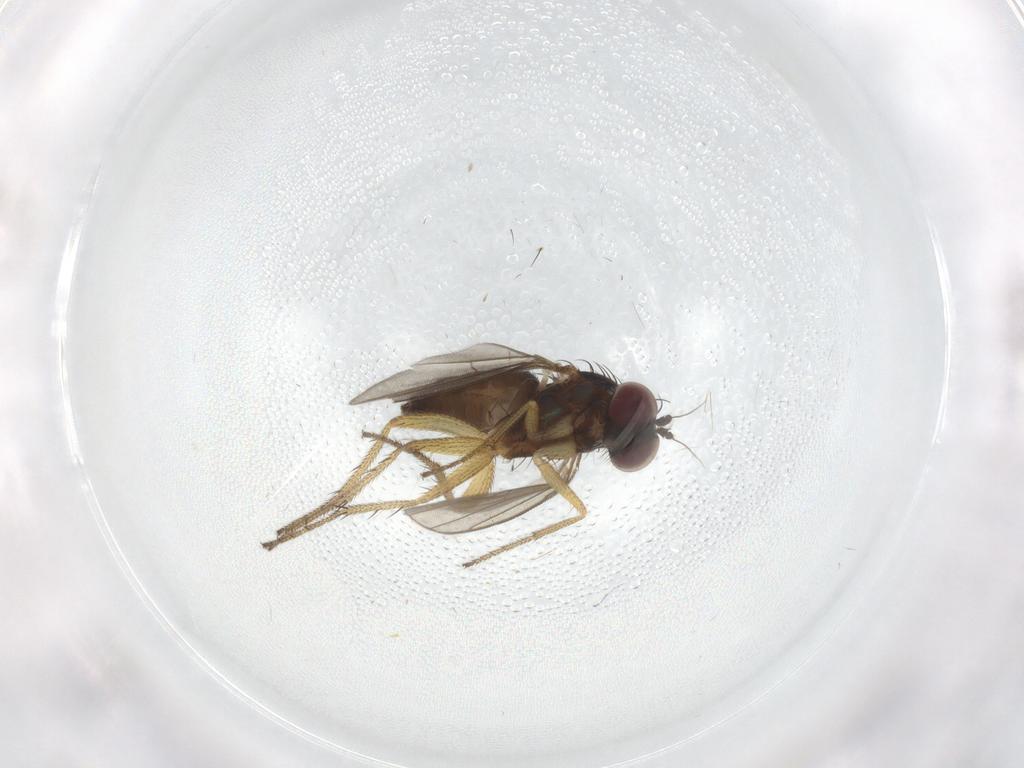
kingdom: Animalia
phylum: Arthropoda
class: Insecta
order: Diptera
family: Dolichopodidae
